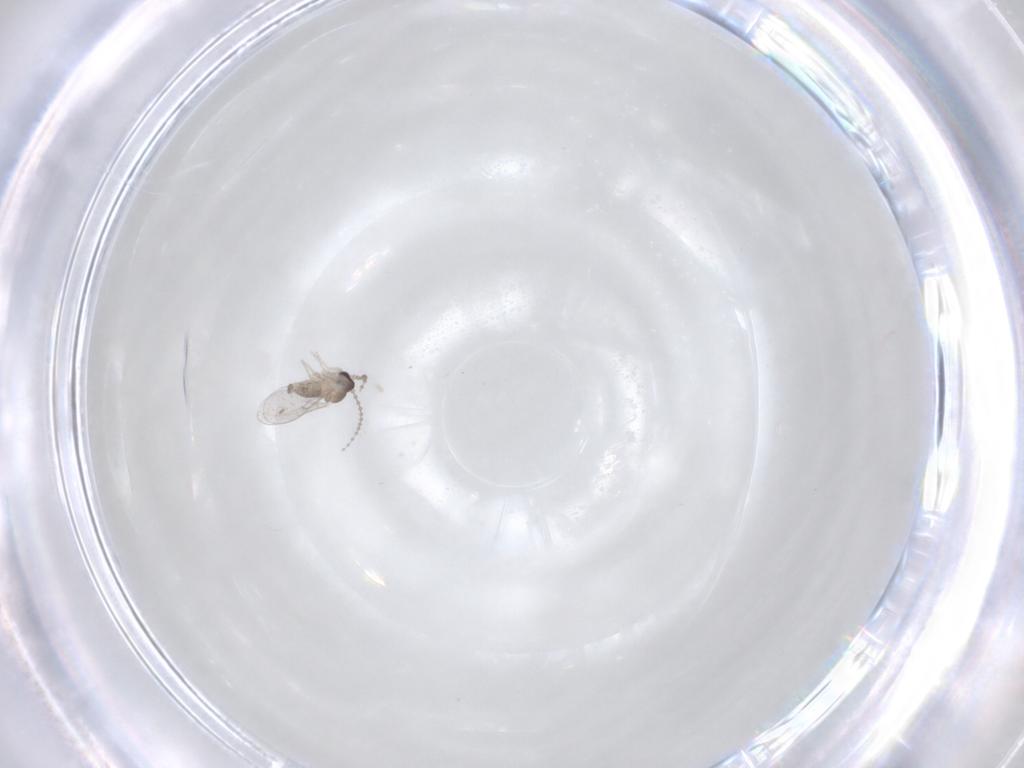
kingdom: Animalia
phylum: Arthropoda
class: Insecta
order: Diptera
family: Cecidomyiidae
